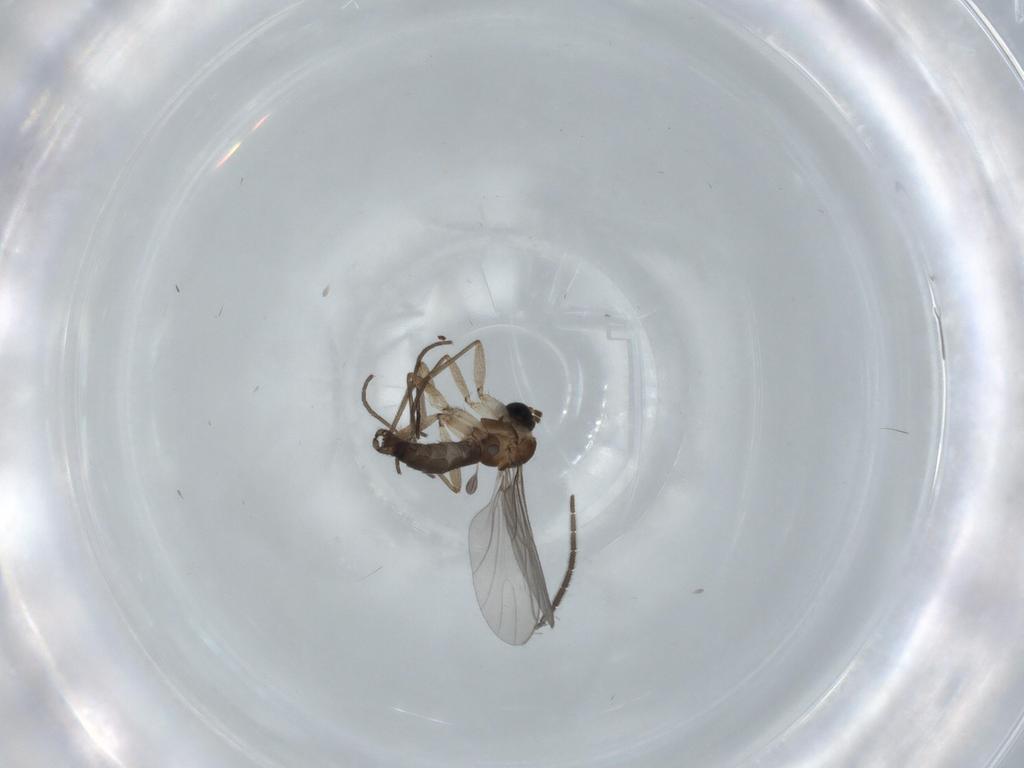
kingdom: Animalia
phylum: Arthropoda
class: Insecta
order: Diptera
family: Sciaridae
